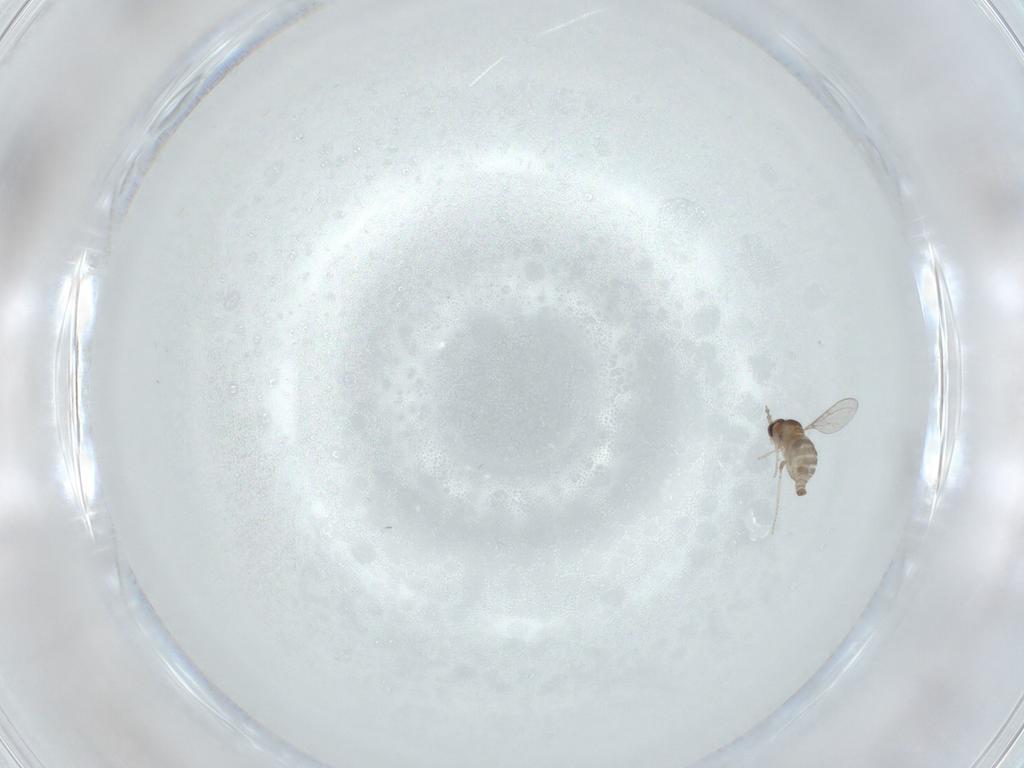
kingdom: Animalia
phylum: Arthropoda
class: Insecta
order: Diptera
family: Cecidomyiidae
